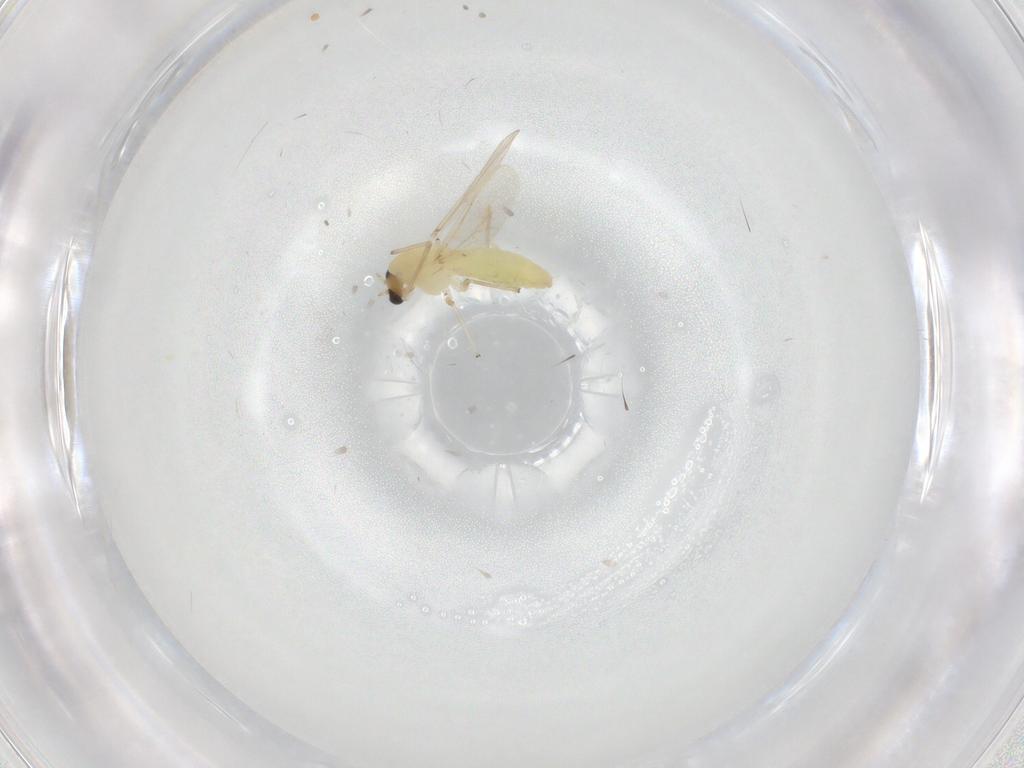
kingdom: Animalia
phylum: Arthropoda
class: Insecta
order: Diptera
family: Chironomidae
